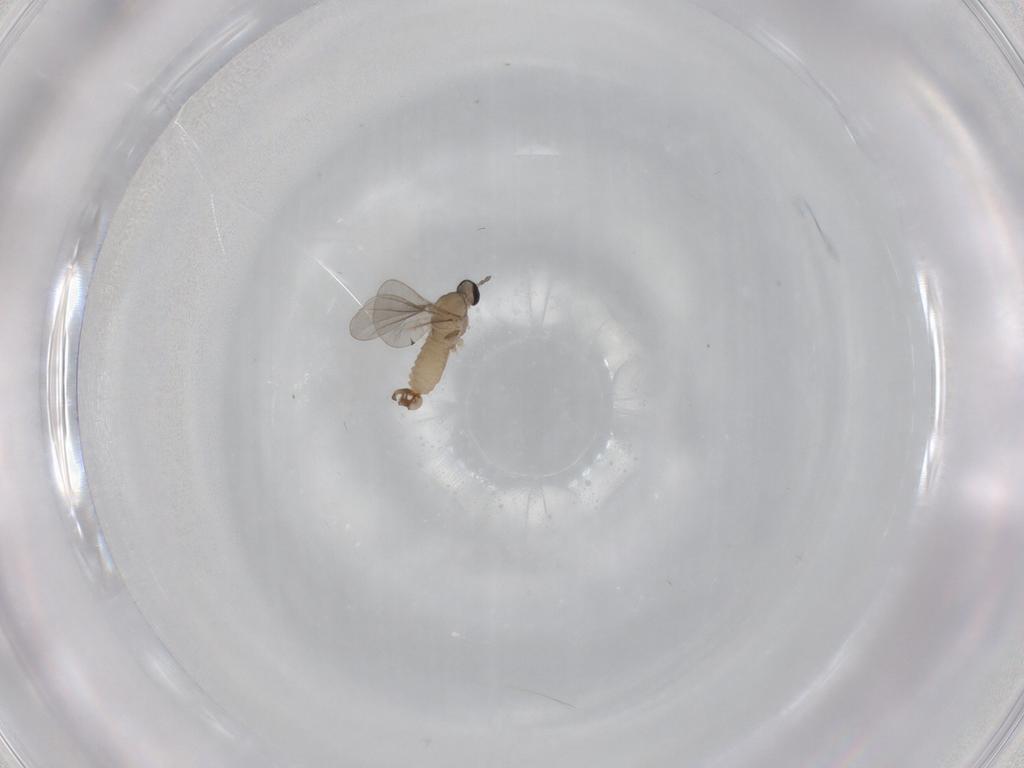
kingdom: Animalia
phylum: Arthropoda
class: Insecta
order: Diptera
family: Cecidomyiidae
